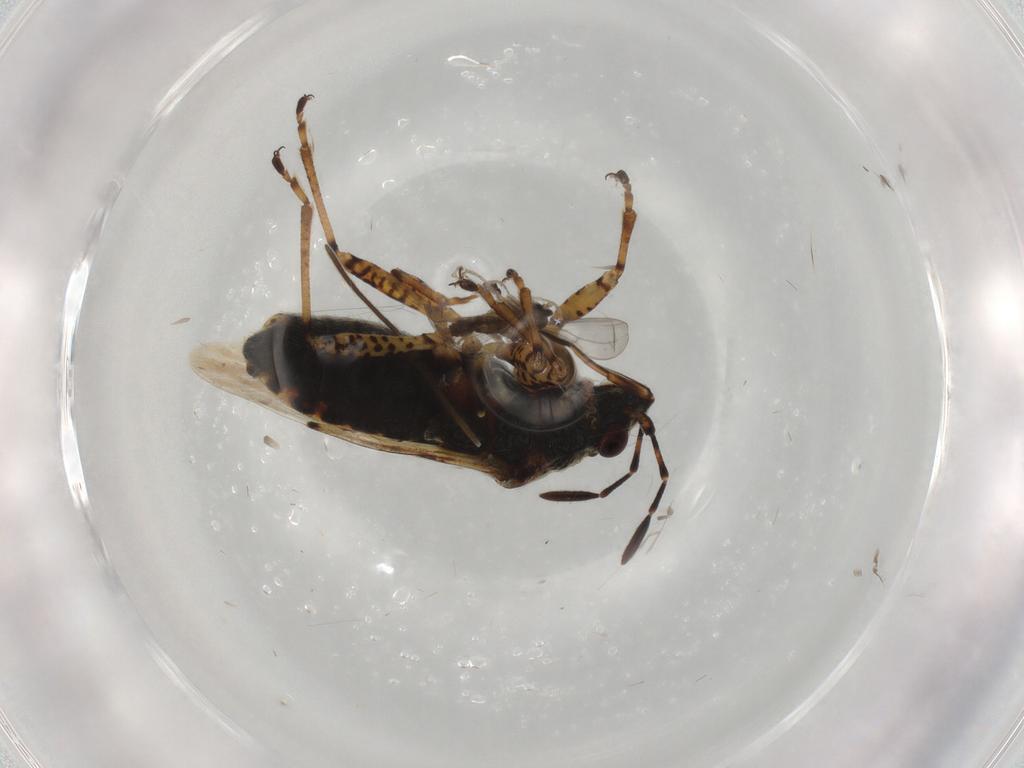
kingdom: Animalia
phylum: Arthropoda
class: Insecta
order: Diptera
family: Cecidomyiidae
